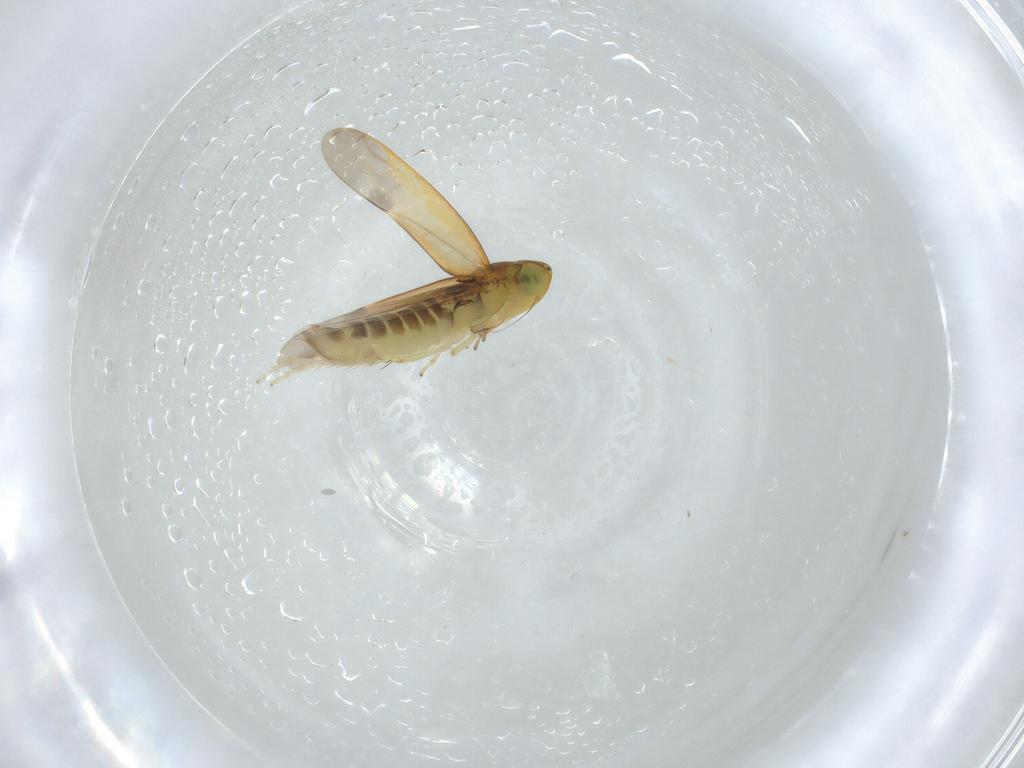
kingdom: Animalia
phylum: Arthropoda
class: Insecta
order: Hemiptera
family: Cicadellidae
